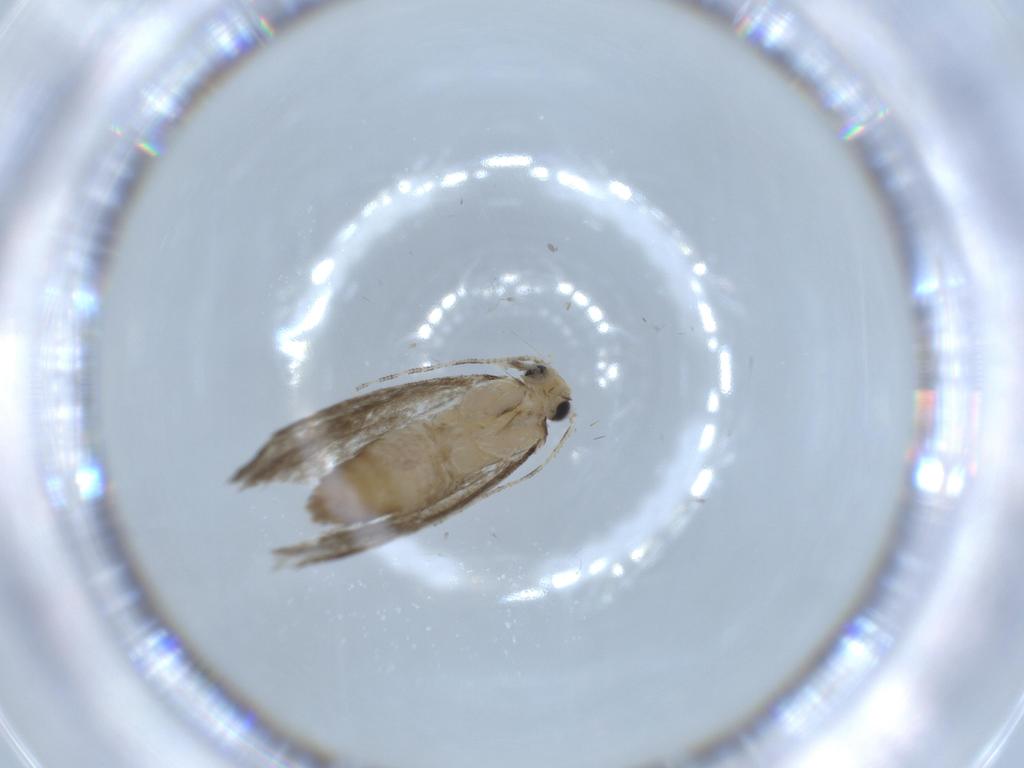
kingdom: Animalia
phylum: Arthropoda
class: Insecta
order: Lepidoptera
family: Tineidae
